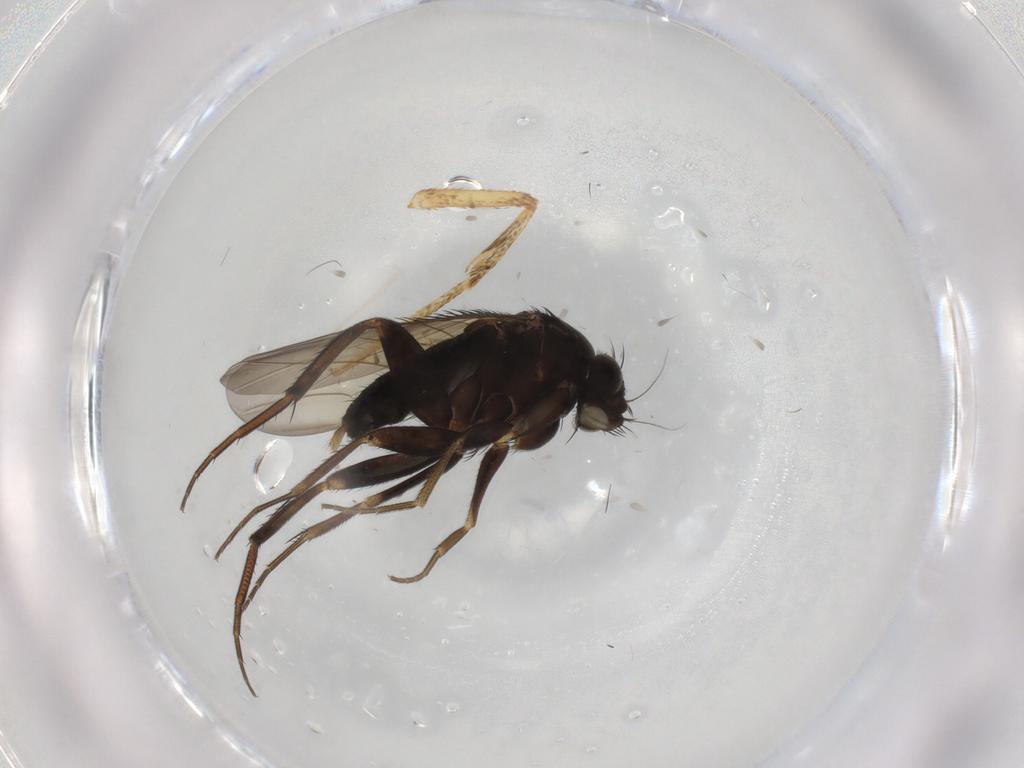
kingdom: Animalia
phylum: Arthropoda
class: Insecta
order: Diptera
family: Phoridae
